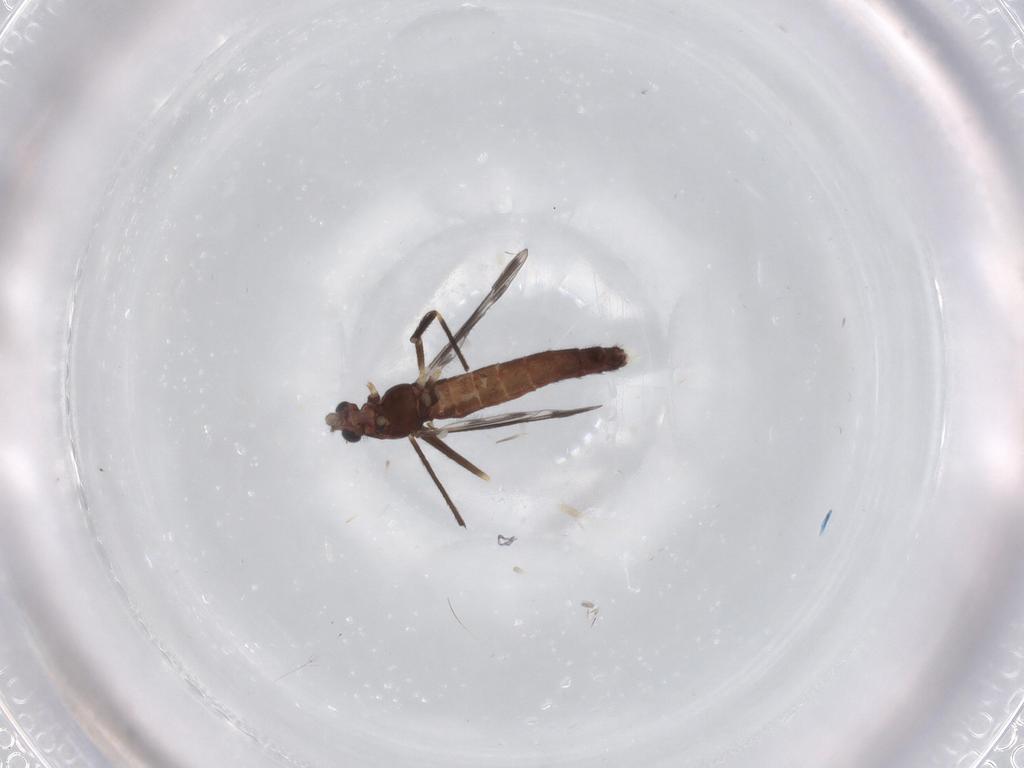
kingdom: Animalia
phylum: Arthropoda
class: Insecta
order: Diptera
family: Chironomidae
